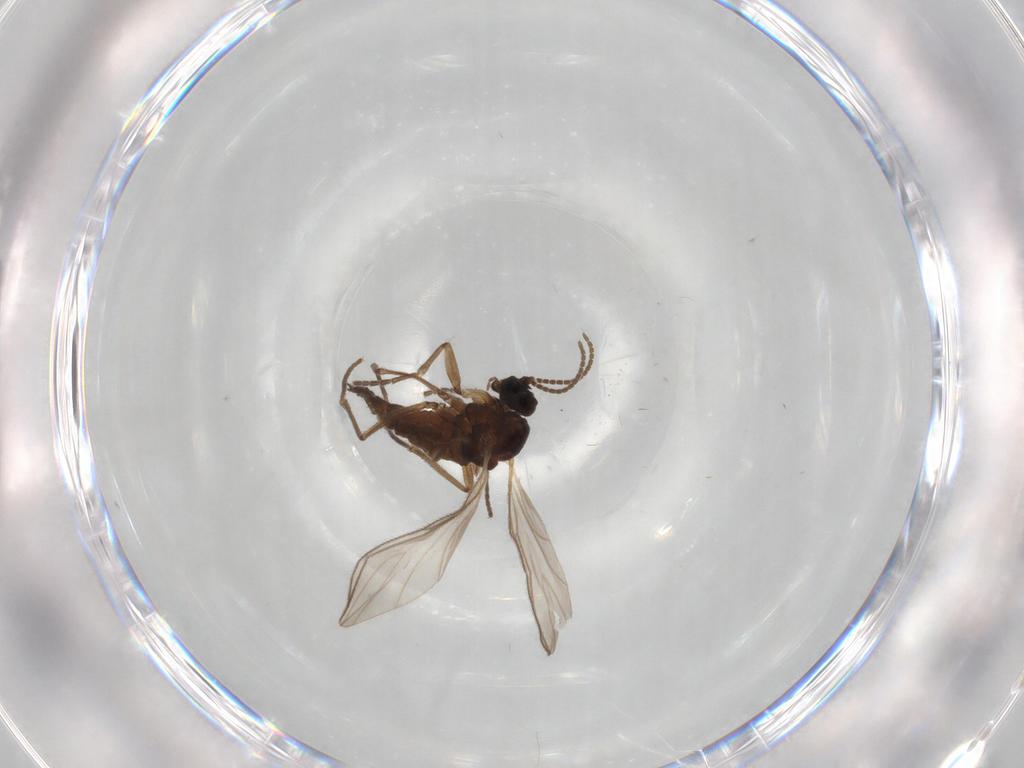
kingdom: Animalia
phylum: Arthropoda
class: Insecta
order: Diptera
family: Sciaridae
